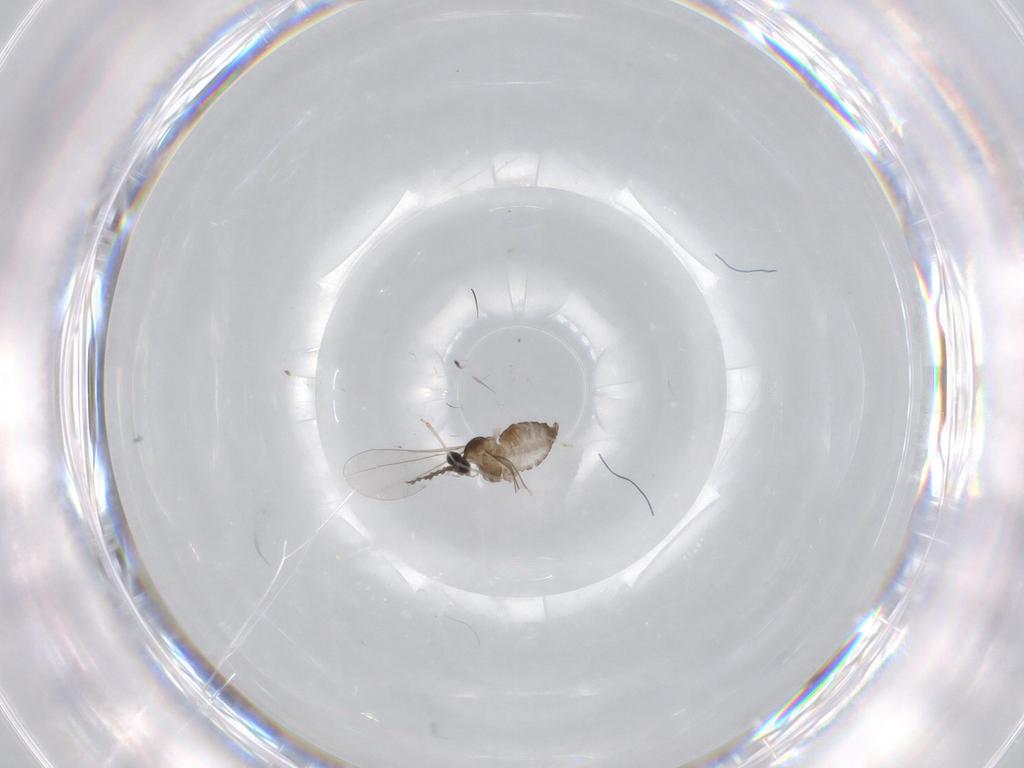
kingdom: Animalia
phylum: Arthropoda
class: Insecta
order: Diptera
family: Cecidomyiidae
